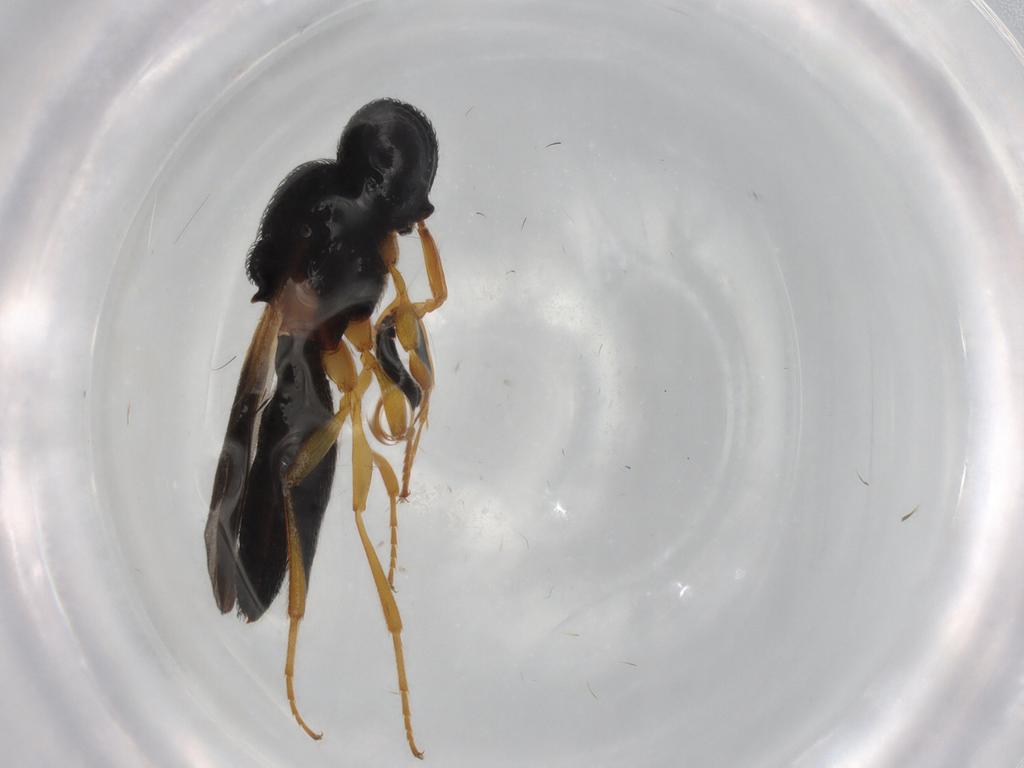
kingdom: Animalia
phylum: Arthropoda
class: Insecta
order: Hymenoptera
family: Scelionidae
